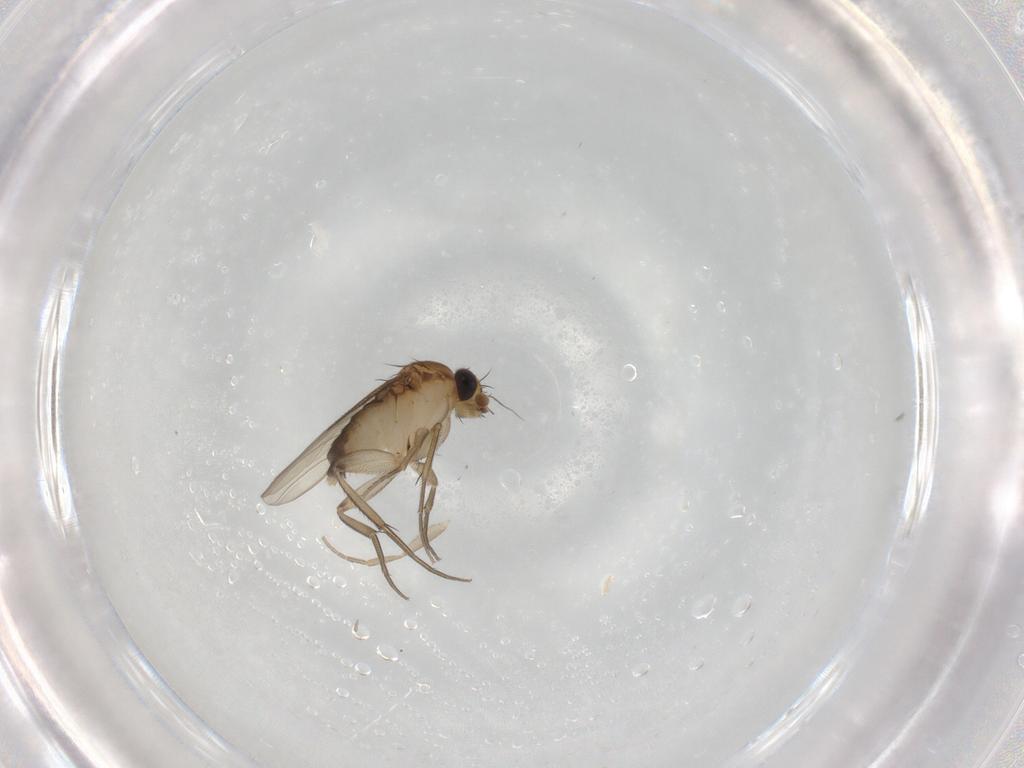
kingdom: Animalia
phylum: Arthropoda
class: Insecta
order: Diptera
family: Phoridae
